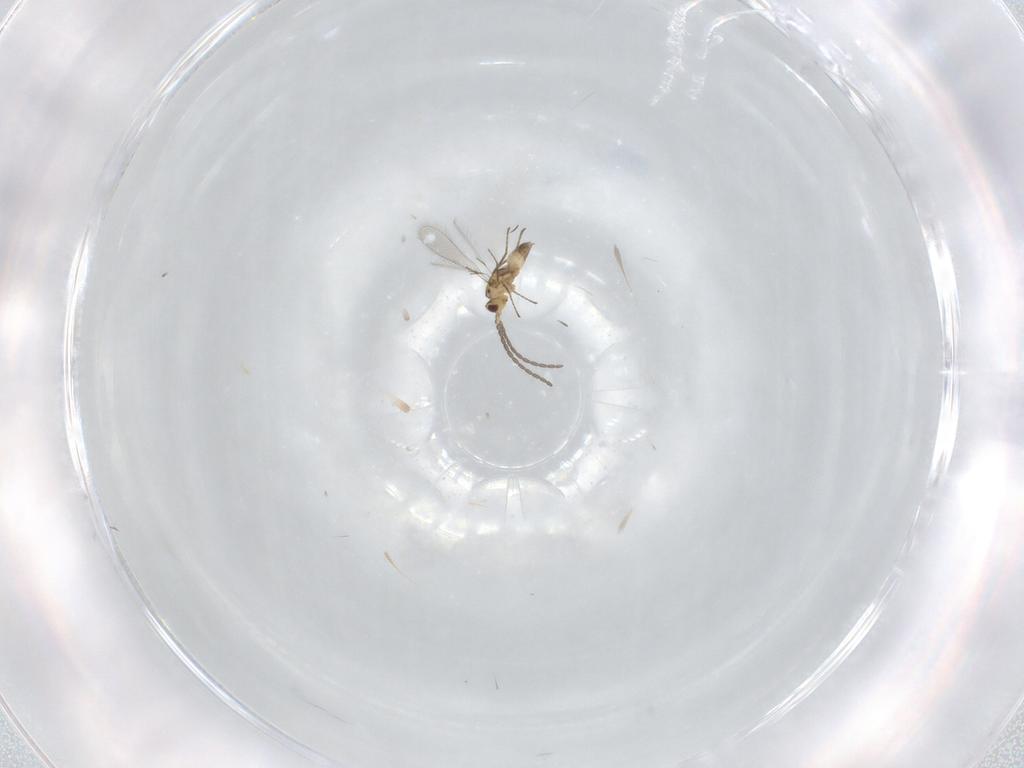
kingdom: Animalia
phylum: Arthropoda
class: Insecta
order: Hymenoptera
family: Mymaridae
